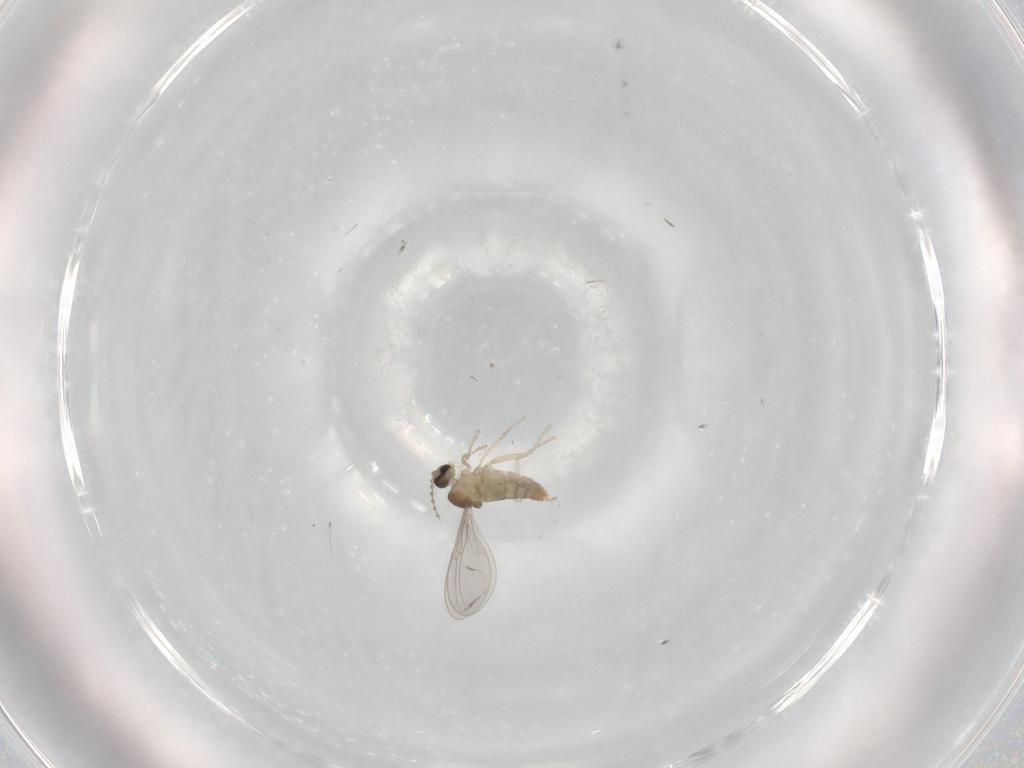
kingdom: Animalia
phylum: Arthropoda
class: Insecta
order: Diptera
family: Cecidomyiidae
